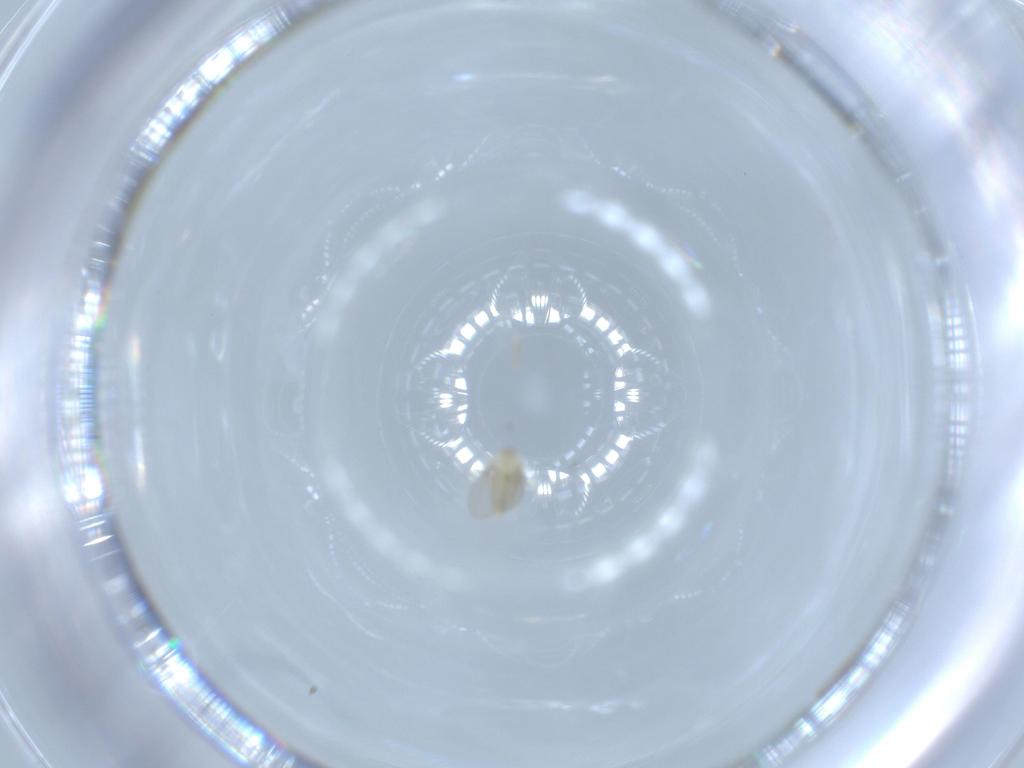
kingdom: Animalia
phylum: Arthropoda
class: Insecta
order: Diptera
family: Cecidomyiidae
